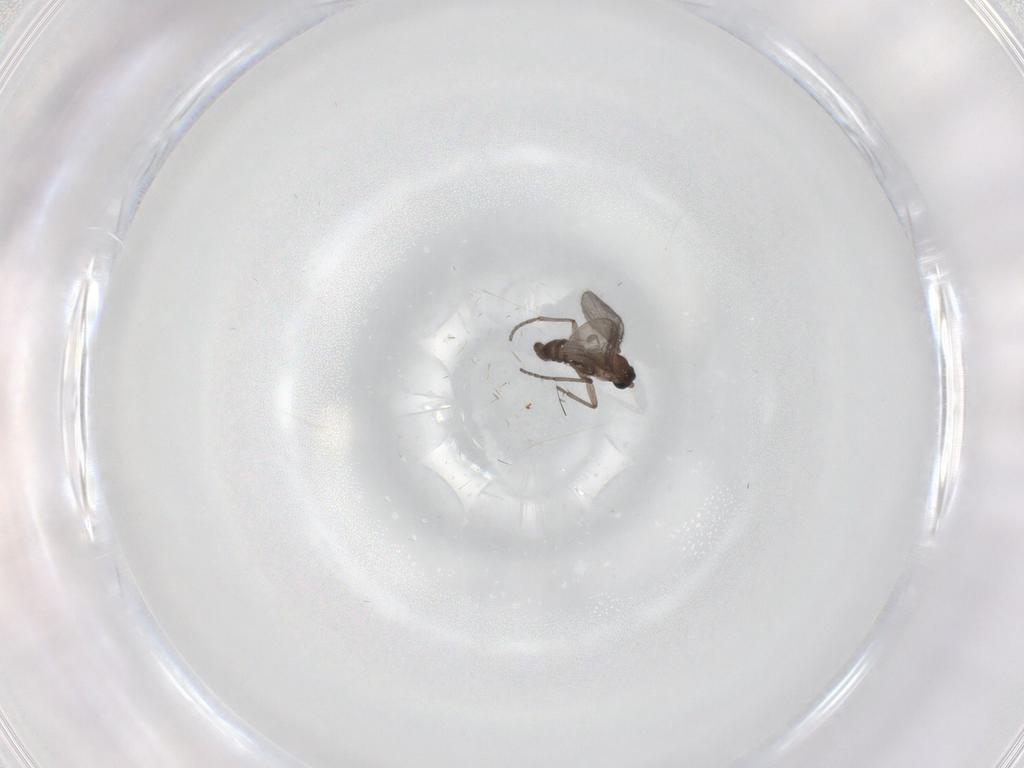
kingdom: Animalia
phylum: Arthropoda
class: Insecta
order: Diptera
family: Sciaridae
